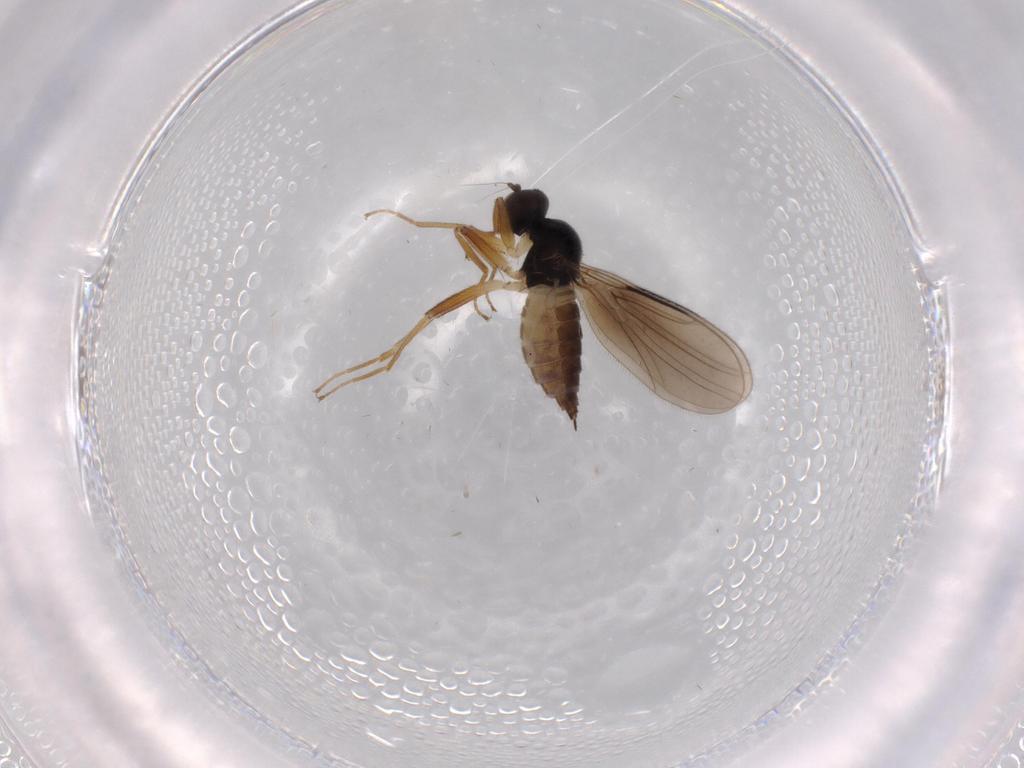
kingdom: Animalia
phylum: Arthropoda
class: Insecta
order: Diptera
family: Hybotidae
